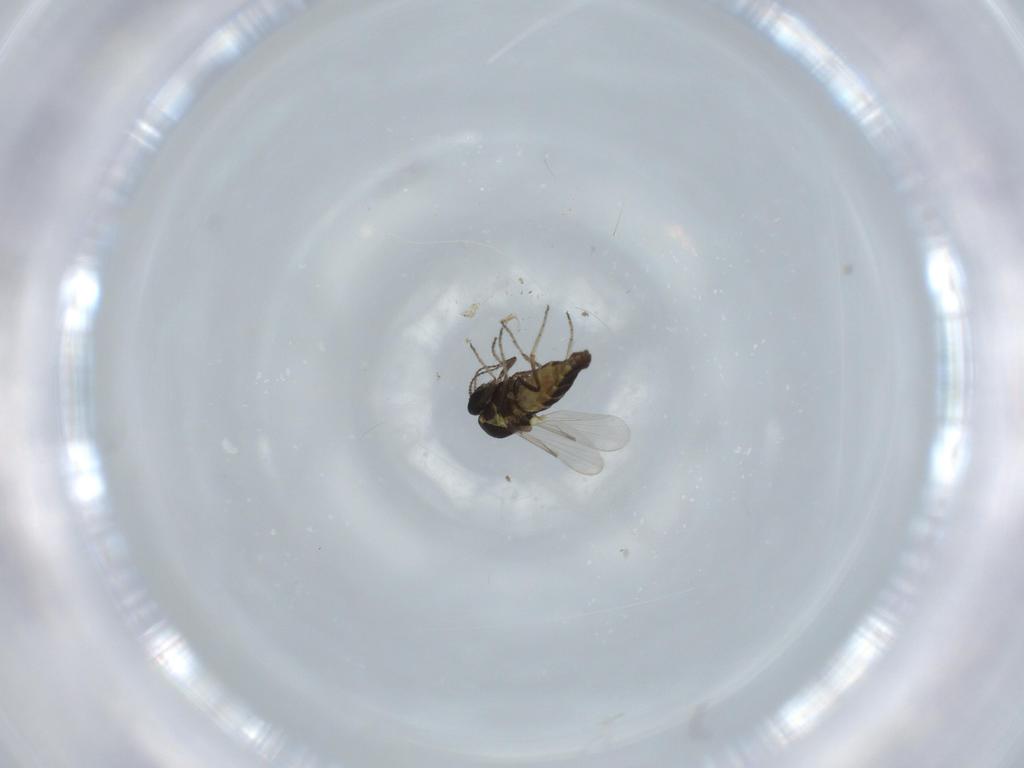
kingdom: Animalia
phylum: Arthropoda
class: Insecta
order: Diptera
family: Chironomidae
